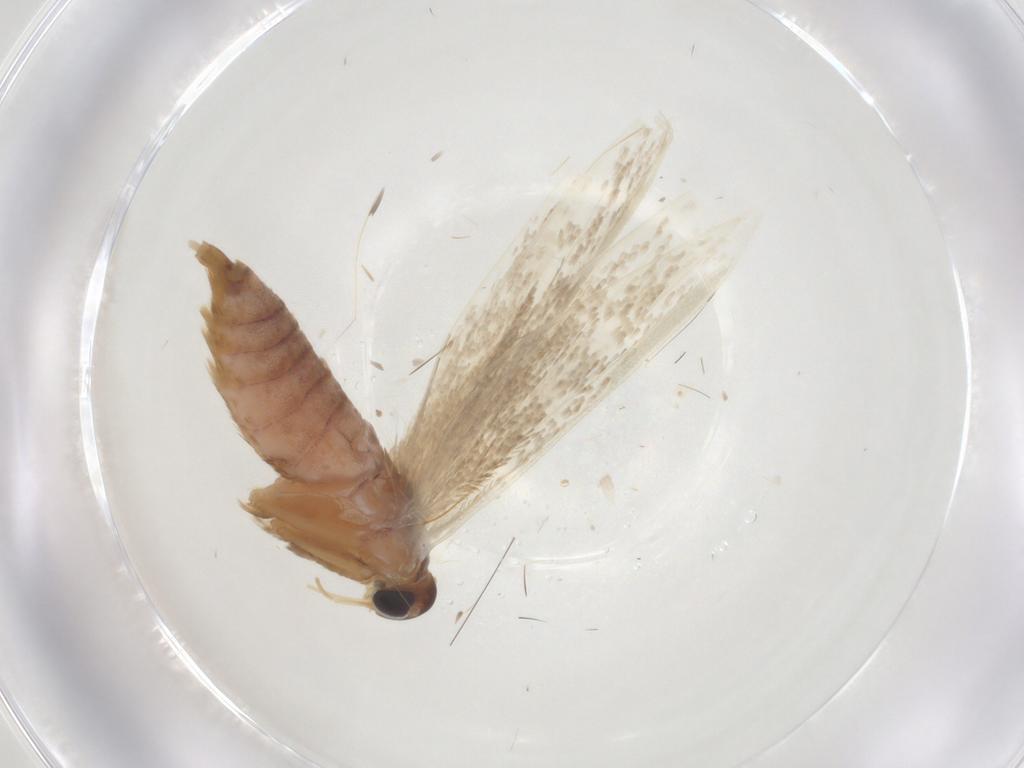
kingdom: Animalia
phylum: Arthropoda
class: Insecta
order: Lepidoptera
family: Blastobasidae
